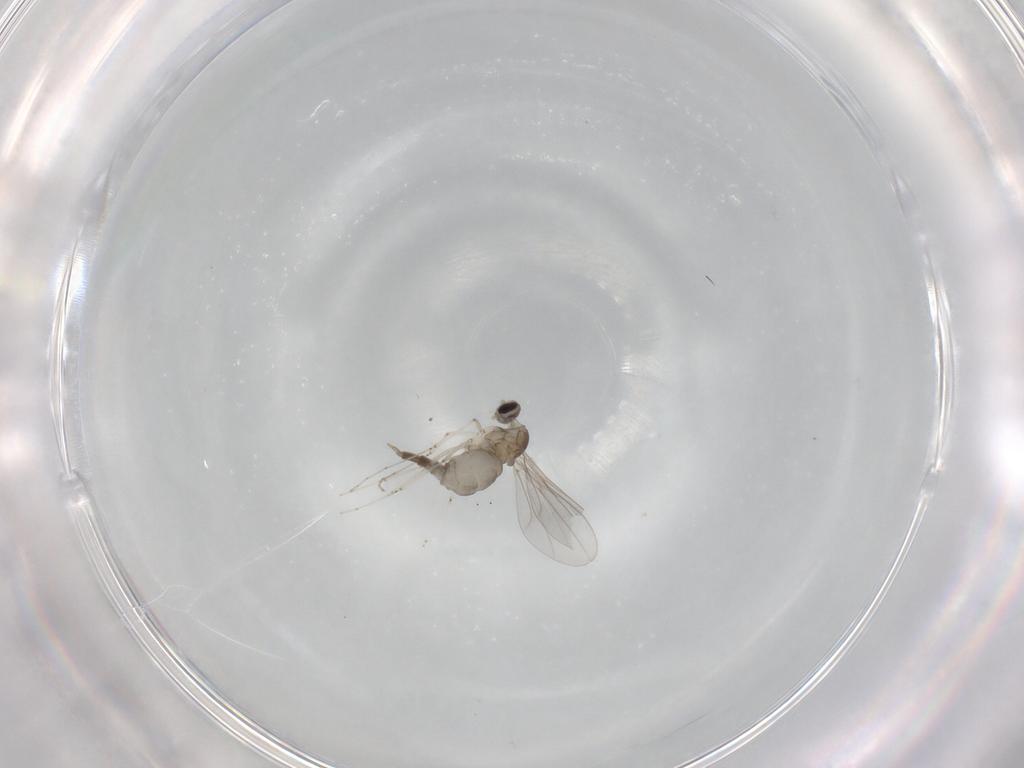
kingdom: Animalia
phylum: Arthropoda
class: Insecta
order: Diptera
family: Cecidomyiidae
